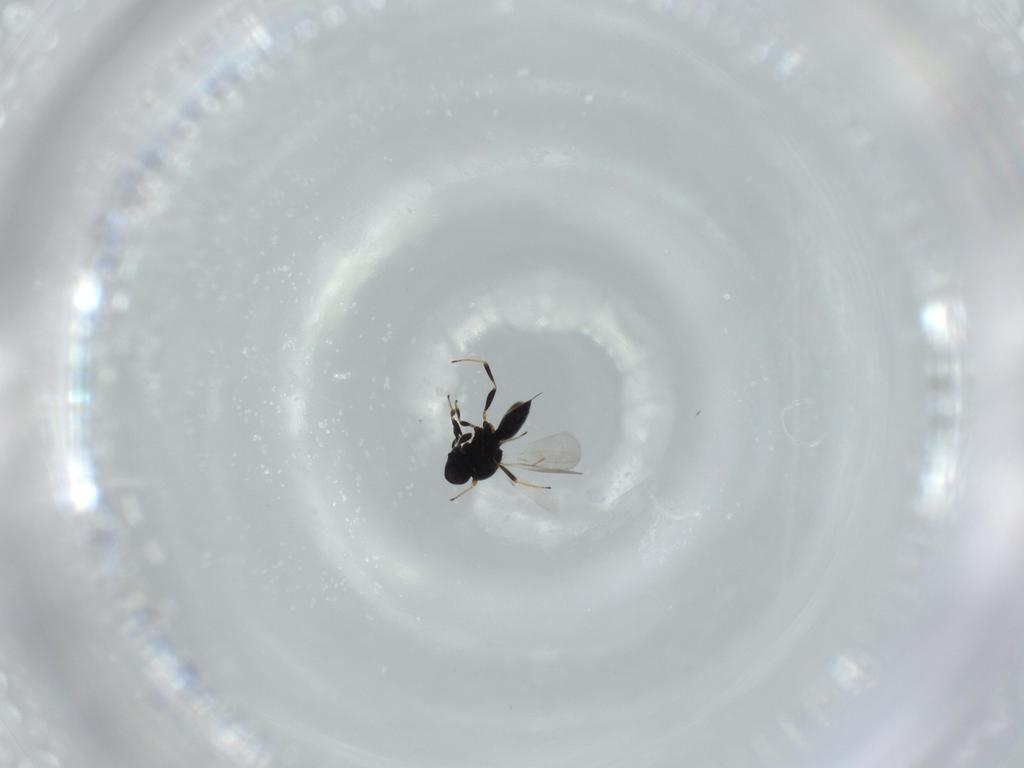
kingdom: Animalia
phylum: Arthropoda
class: Insecta
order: Hymenoptera
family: Scelionidae
